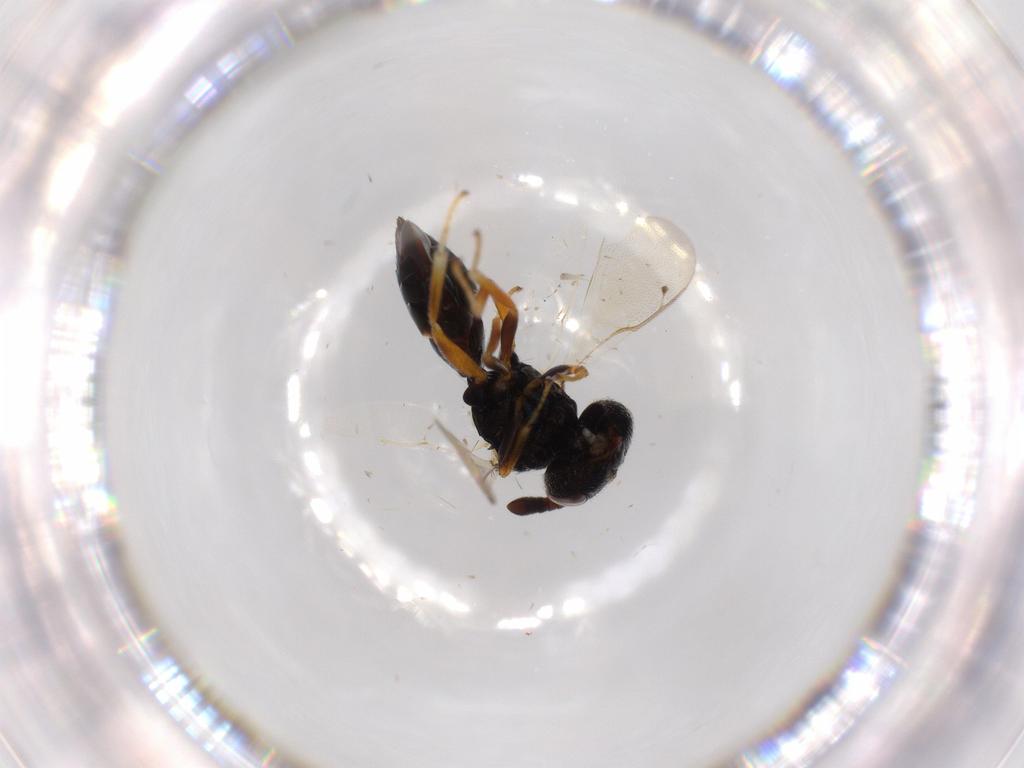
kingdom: Animalia
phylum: Arthropoda
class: Insecta
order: Hymenoptera
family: Agaonidae
